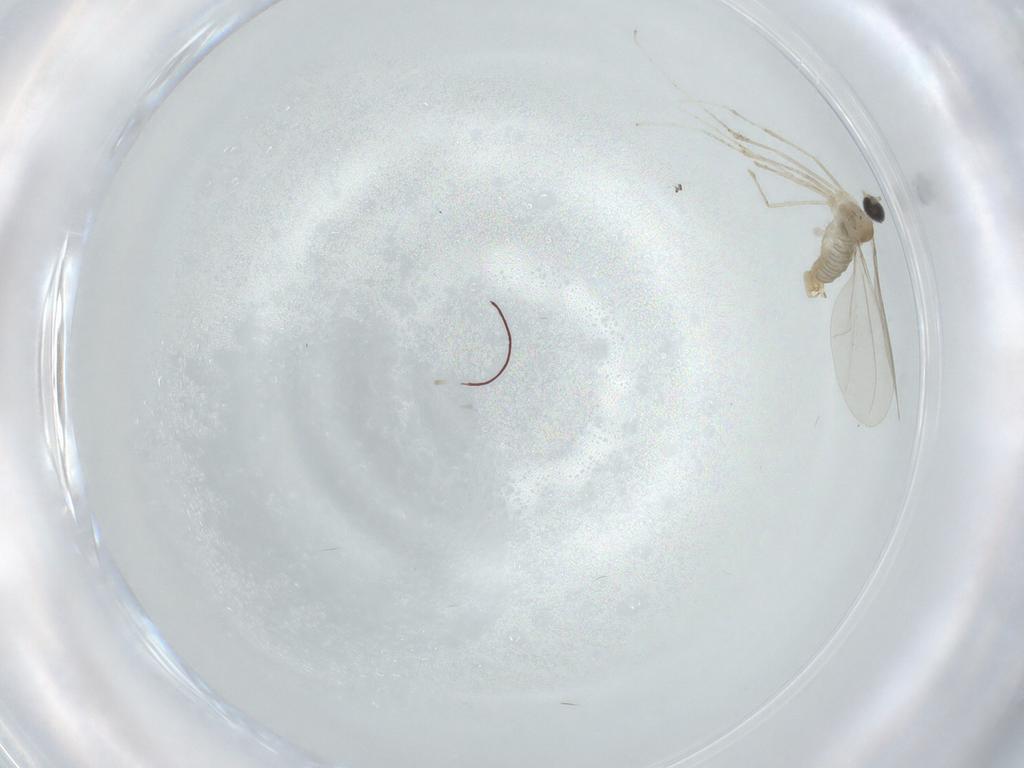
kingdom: Animalia
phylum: Arthropoda
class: Insecta
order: Diptera
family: Cecidomyiidae
